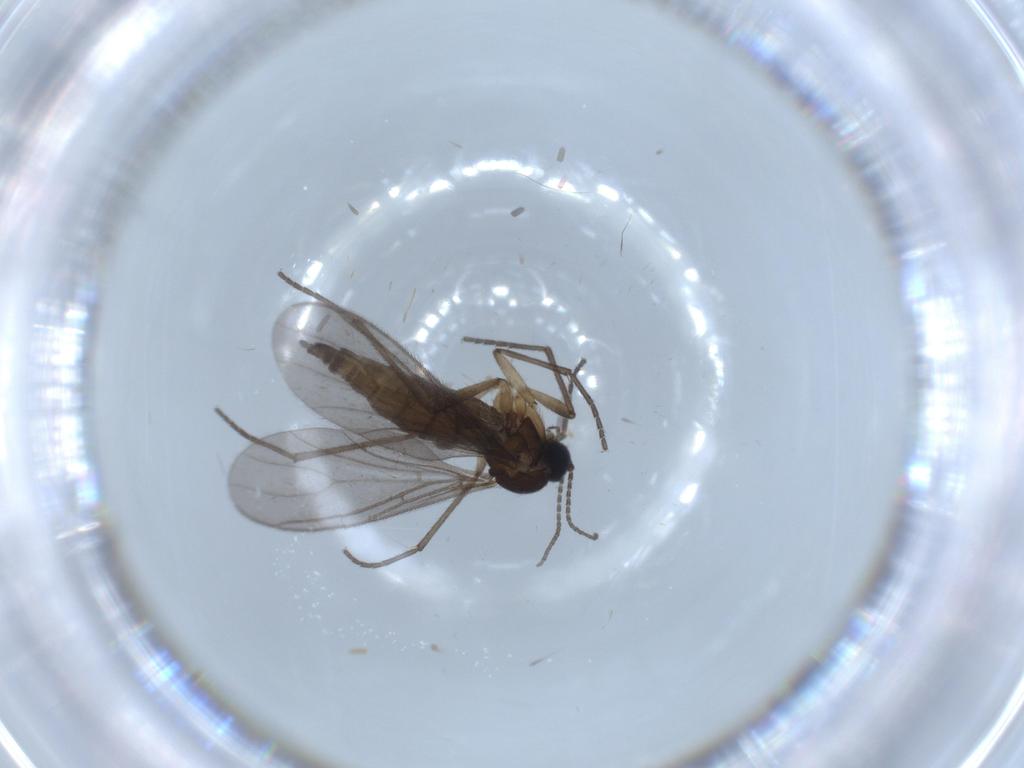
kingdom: Animalia
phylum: Arthropoda
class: Insecta
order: Diptera
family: Sciaridae
